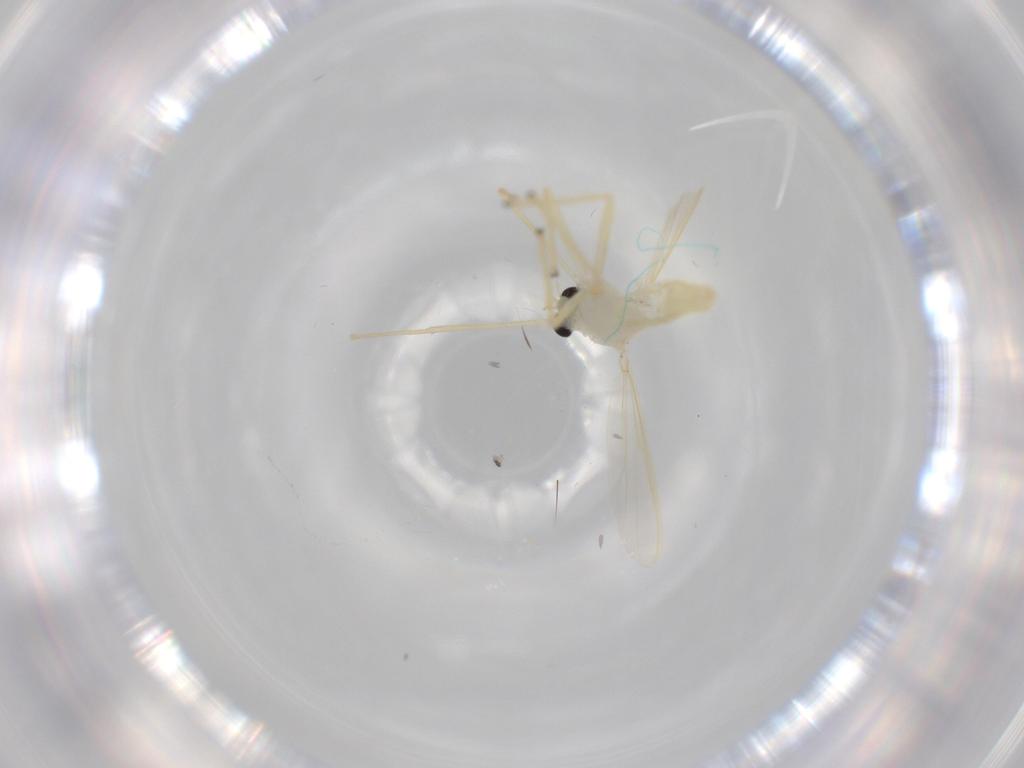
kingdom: Animalia
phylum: Arthropoda
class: Insecta
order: Diptera
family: Chironomidae
